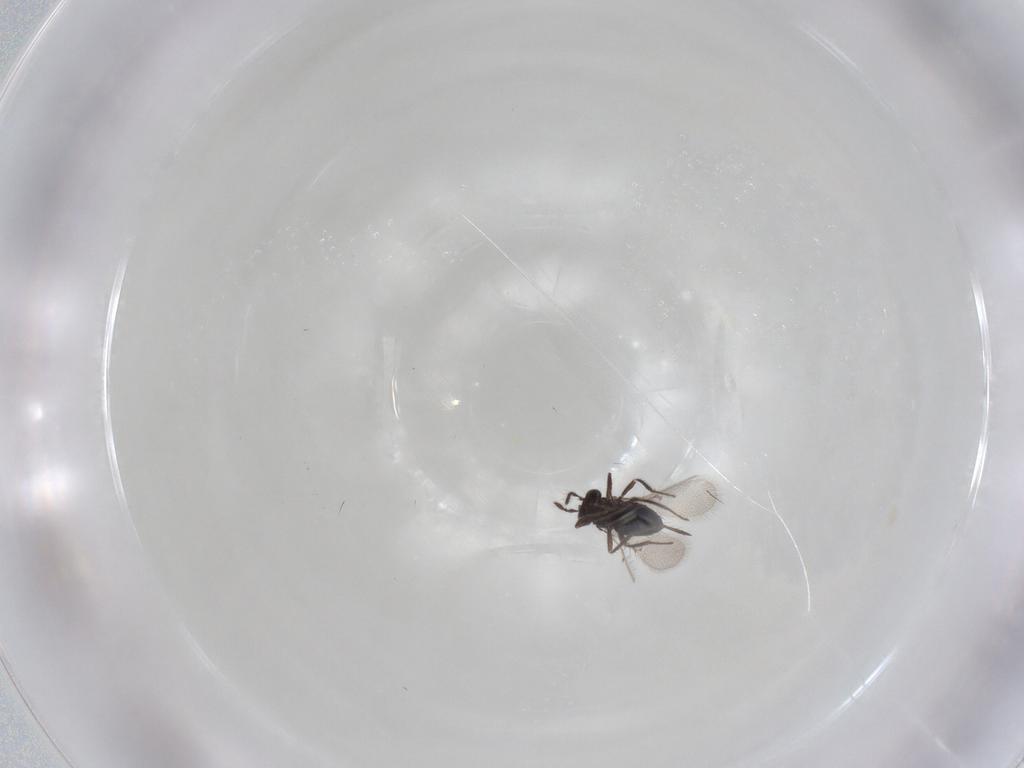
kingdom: Animalia
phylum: Arthropoda
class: Insecta
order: Hymenoptera
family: Trichogrammatidae
